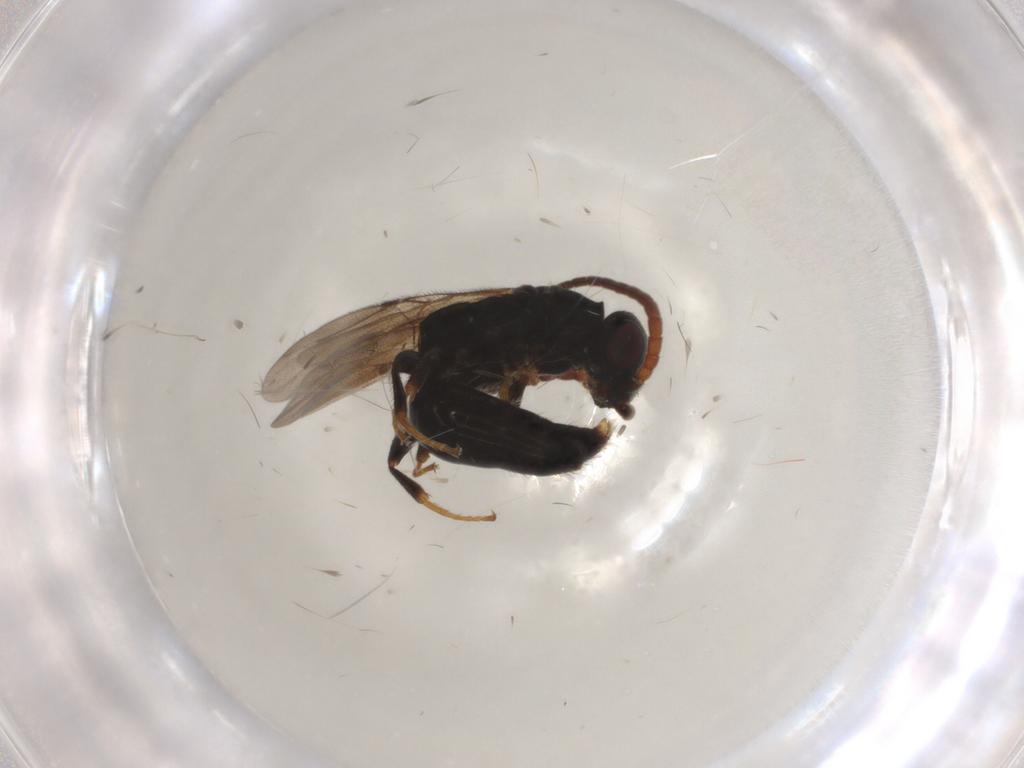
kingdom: Animalia
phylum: Arthropoda
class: Insecta
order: Hymenoptera
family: Bethylidae
